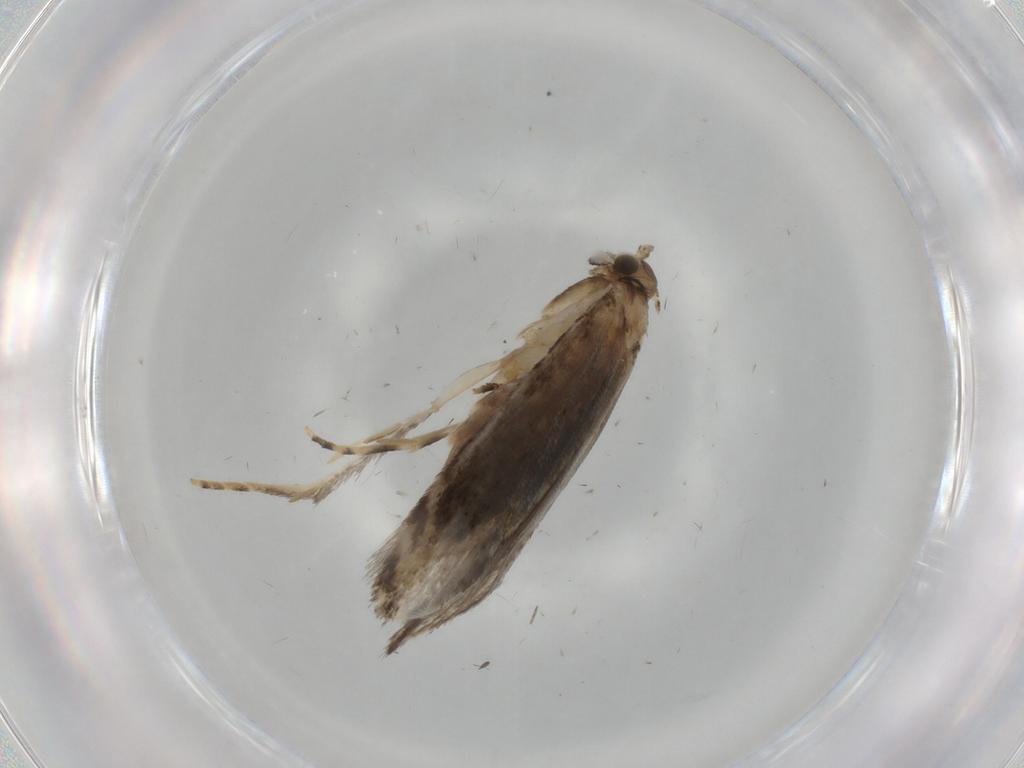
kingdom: Animalia
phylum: Arthropoda
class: Insecta
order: Lepidoptera
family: Tineidae
